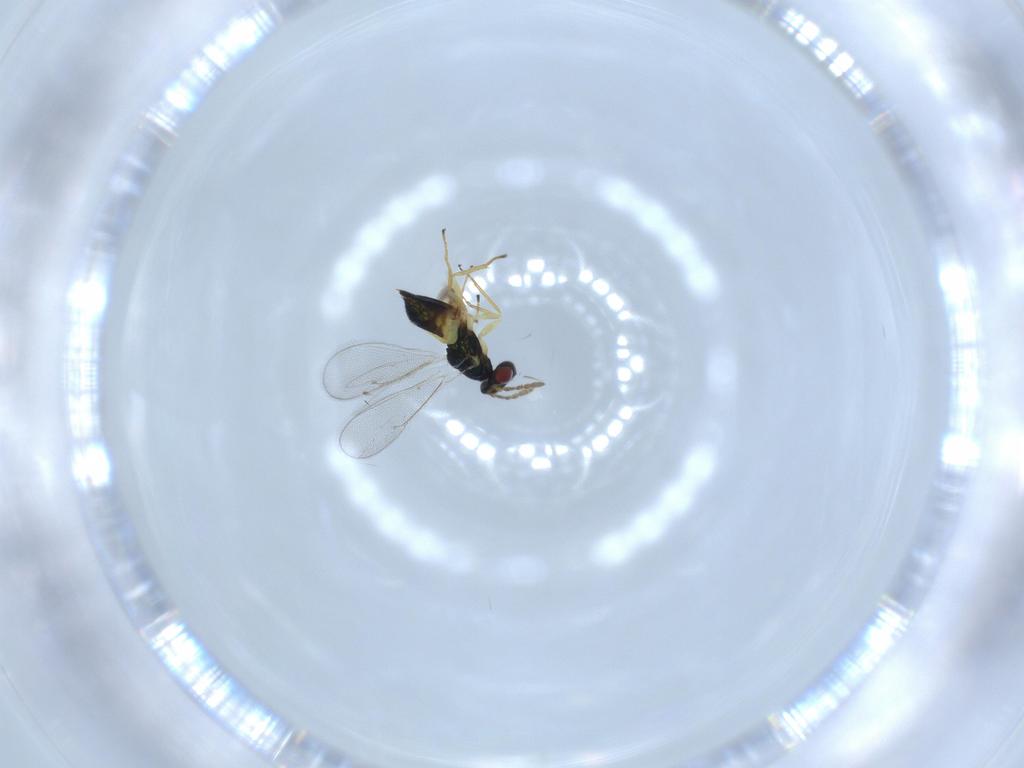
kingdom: Animalia
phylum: Arthropoda
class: Insecta
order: Hymenoptera
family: Eulophidae
